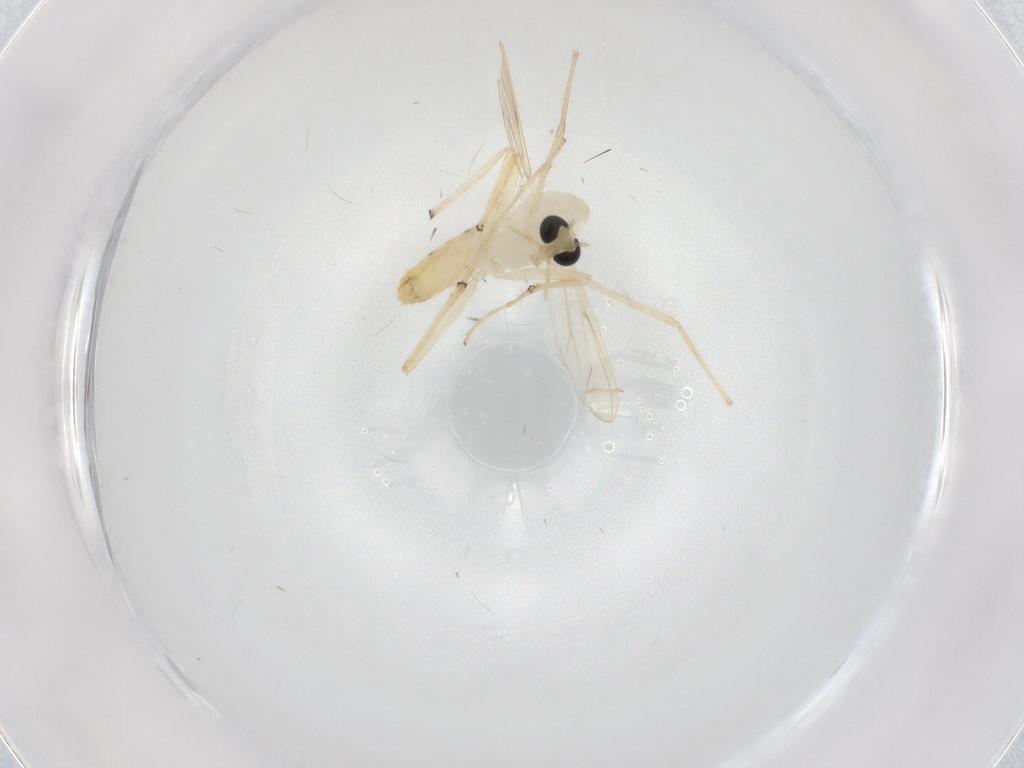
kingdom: Animalia
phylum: Arthropoda
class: Insecta
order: Diptera
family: Chironomidae
